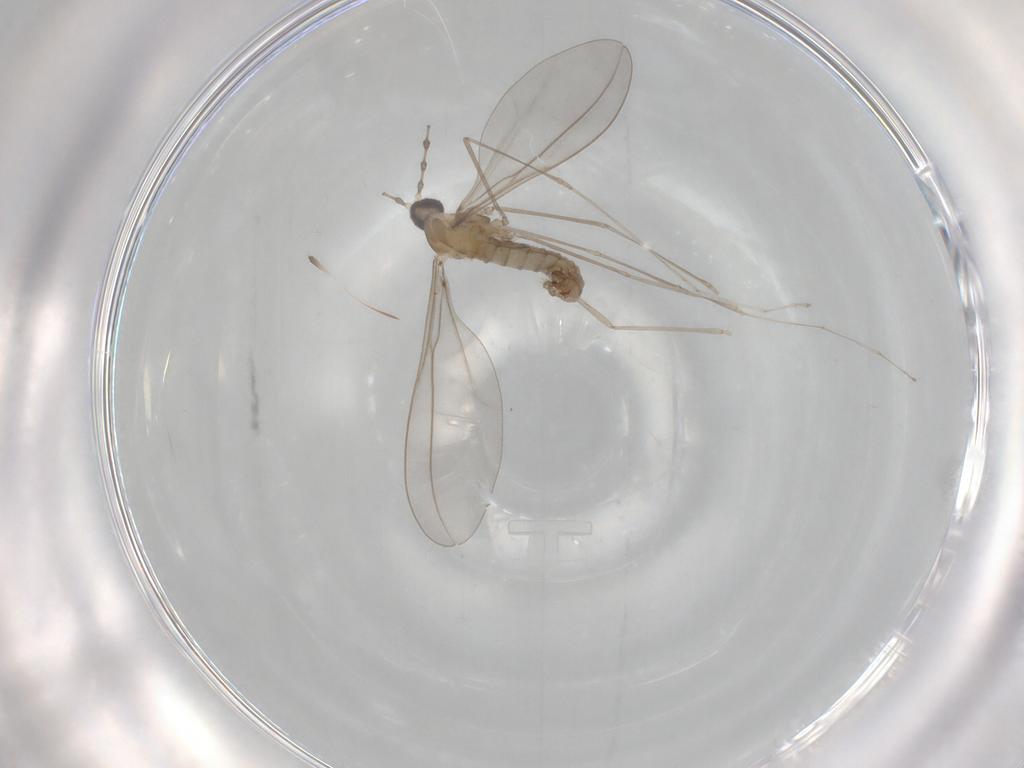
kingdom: Animalia
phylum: Arthropoda
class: Insecta
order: Diptera
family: Cecidomyiidae
